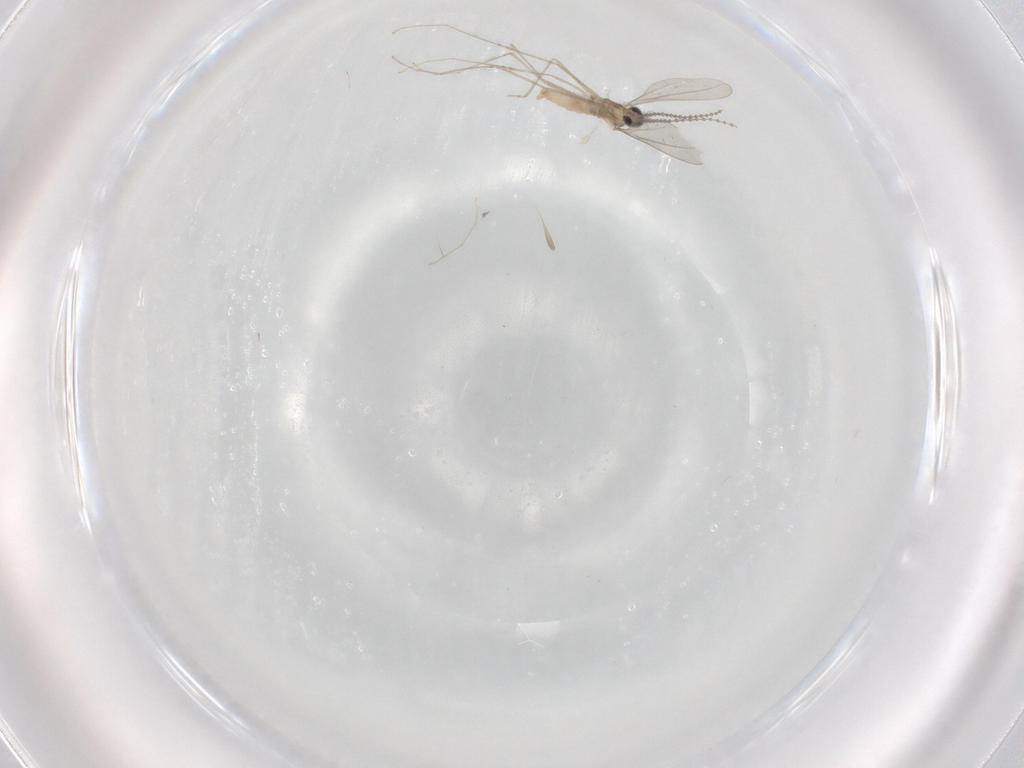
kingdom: Animalia
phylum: Arthropoda
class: Insecta
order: Diptera
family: Cecidomyiidae
